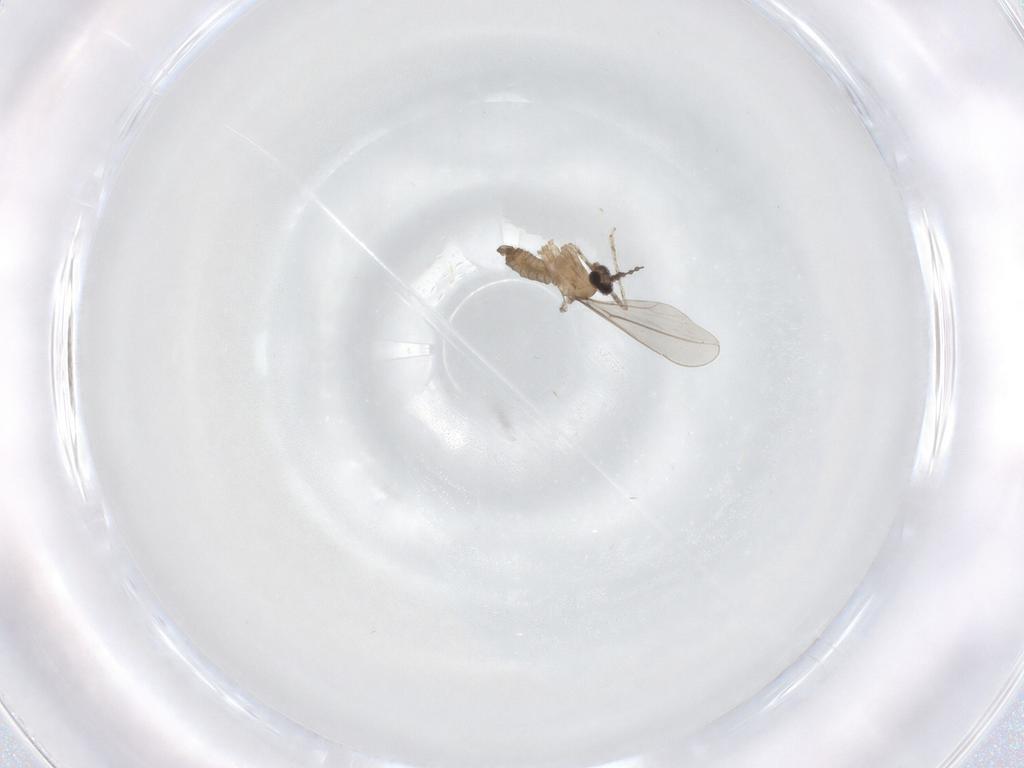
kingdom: Animalia
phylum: Arthropoda
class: Insecta
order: Diptera
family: Cecidomyiidae
